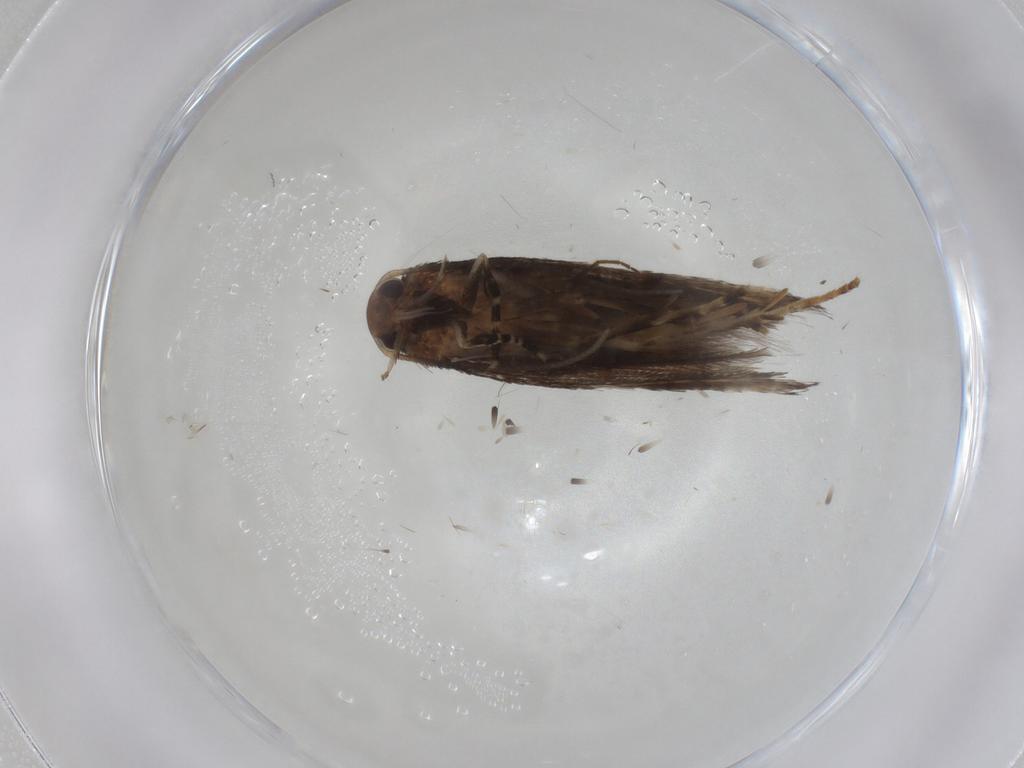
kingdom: Animalia
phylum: Arthropoda
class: Insecta
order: Lepidoptera
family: Elachistidae
